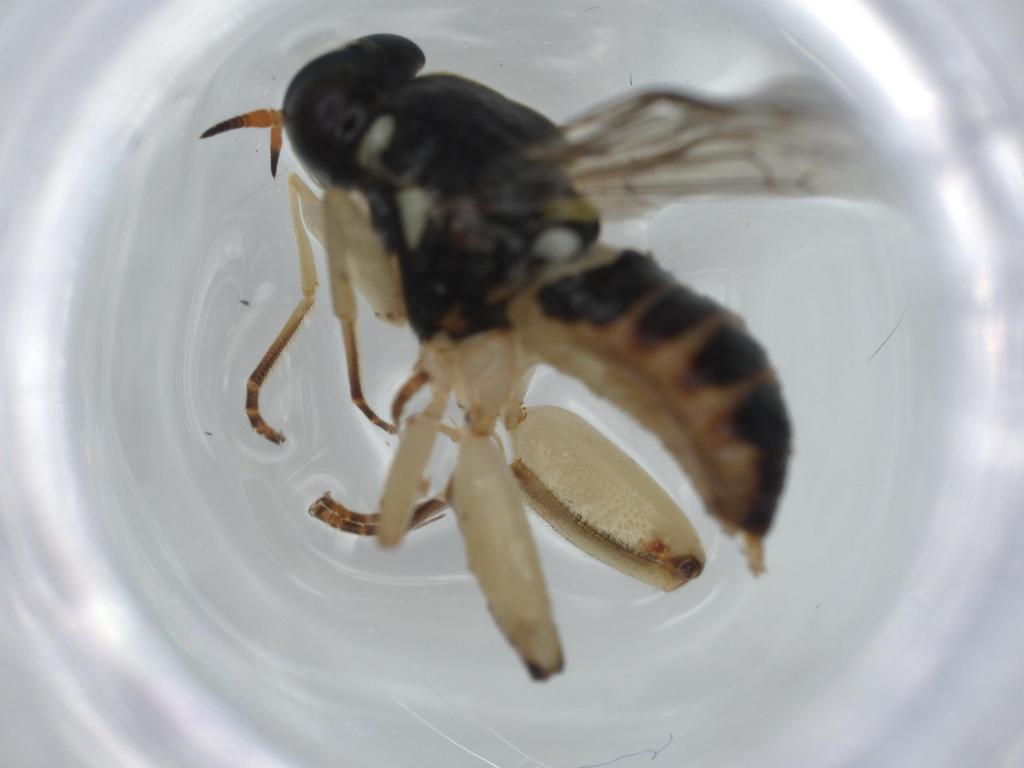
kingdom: Animalia
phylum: Arthropoda
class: Insecta
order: Diptera
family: Xylomyidae
